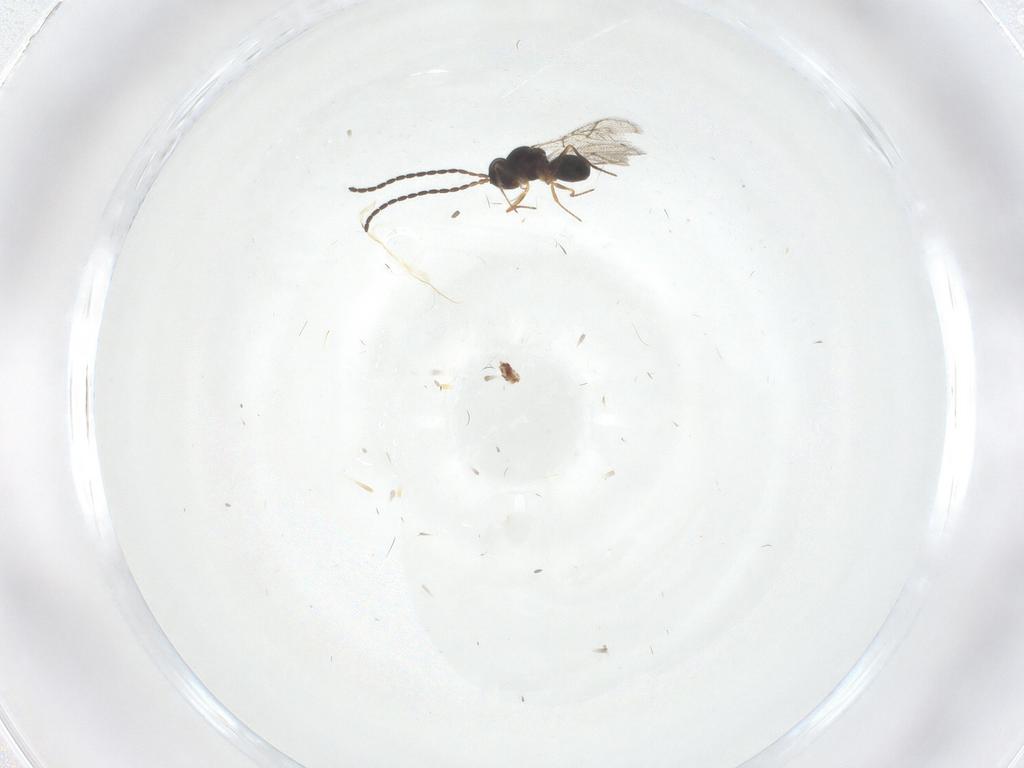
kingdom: Animalia
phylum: Arthropoda
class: Insecta
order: Hymenoptera
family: Figitidae
